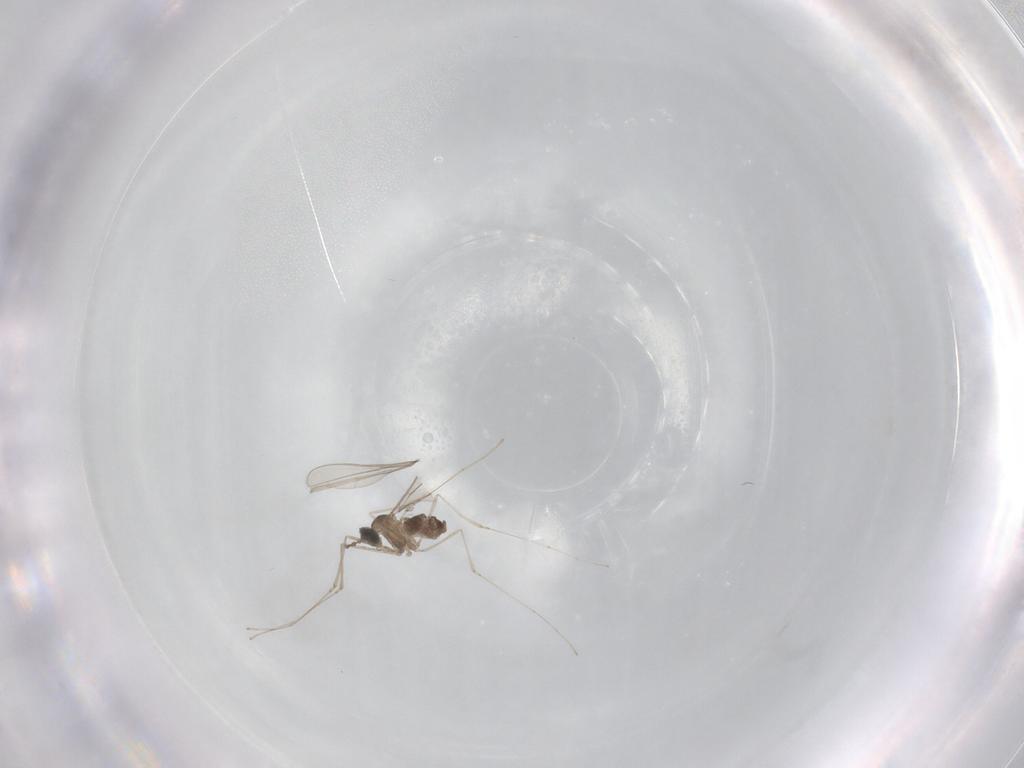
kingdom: Animalia
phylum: Arthropoda
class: Insecta
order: Diptera
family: Cecidomyiidae
